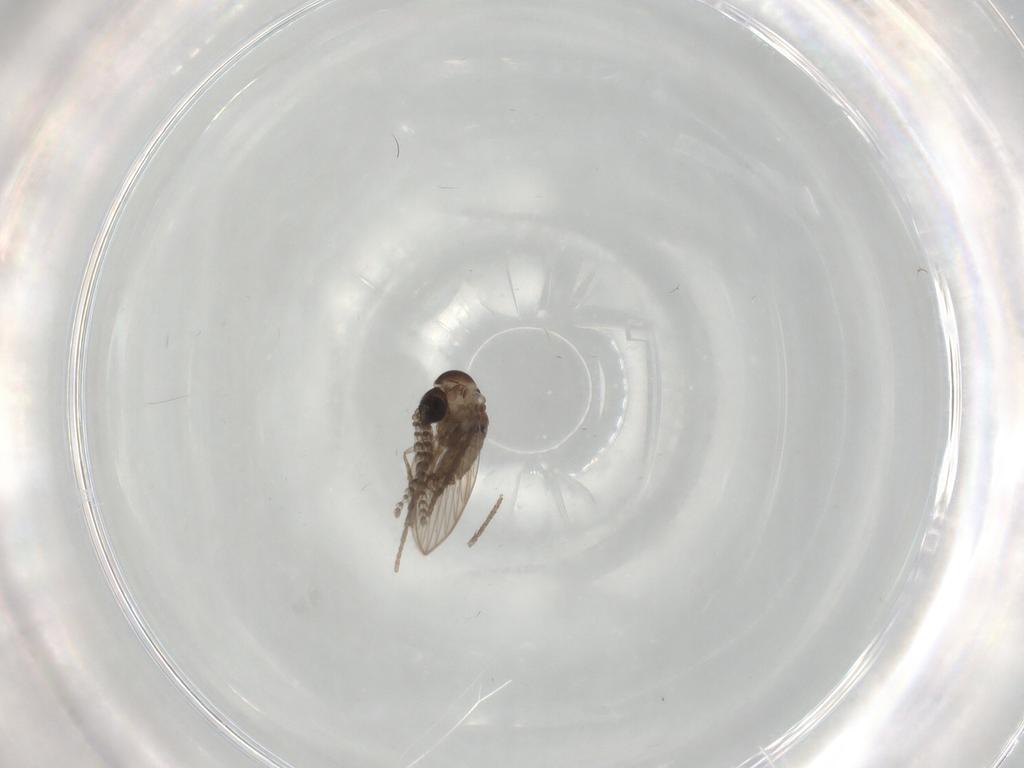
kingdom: Animalia
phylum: Arthropoda
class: Insecta
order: Diptera
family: Psychodidae
